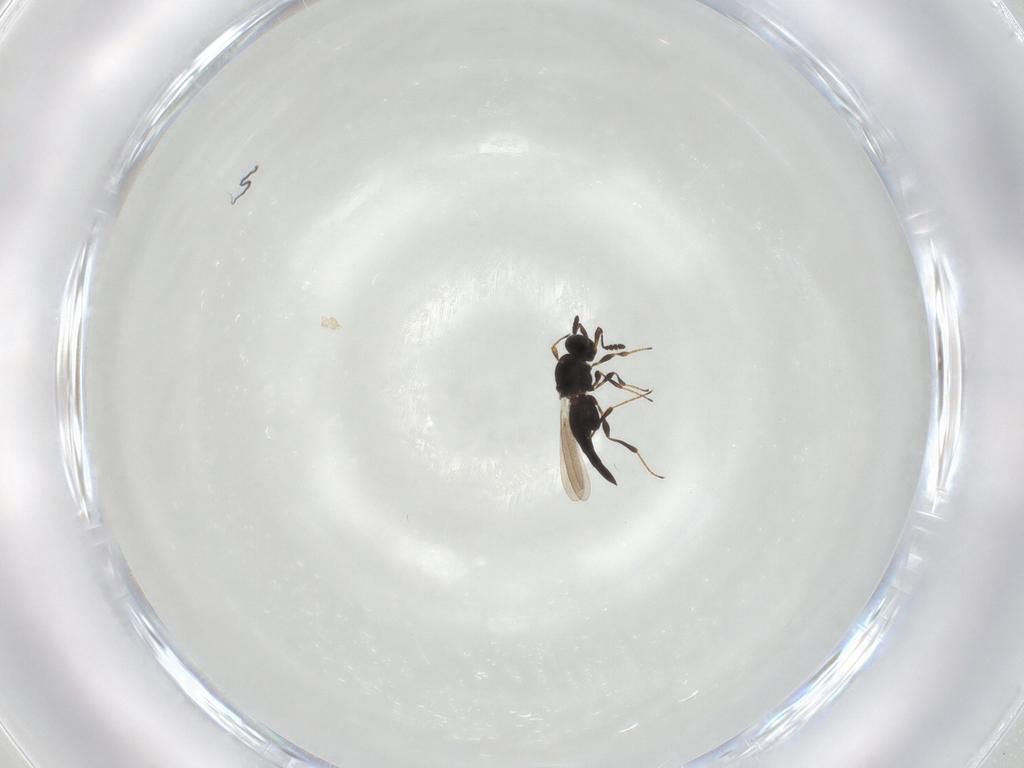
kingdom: Animalia
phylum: Arthropoda
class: Insecta
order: Hymenoptera
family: Platygastridae
